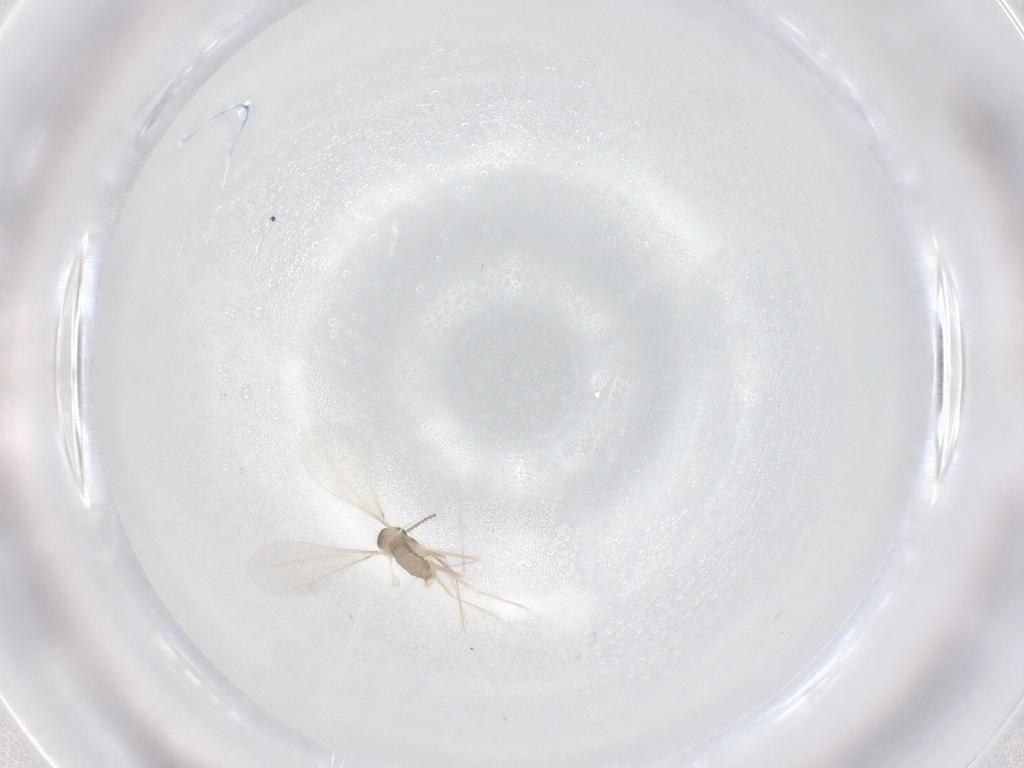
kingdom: Animalia
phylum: Arthropoda
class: Insecta
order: Diptera
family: Cecidomyiidae
